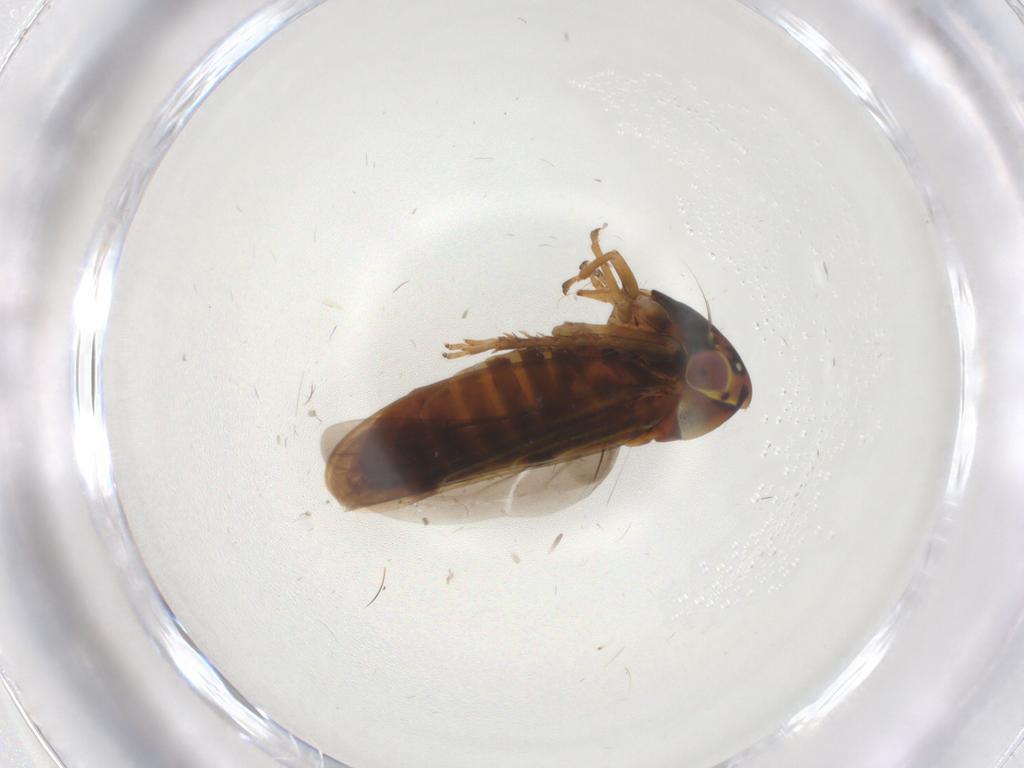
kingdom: Animalia
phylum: Arthropoda
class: Insecta
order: Hemiptera
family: Cicadellidae
